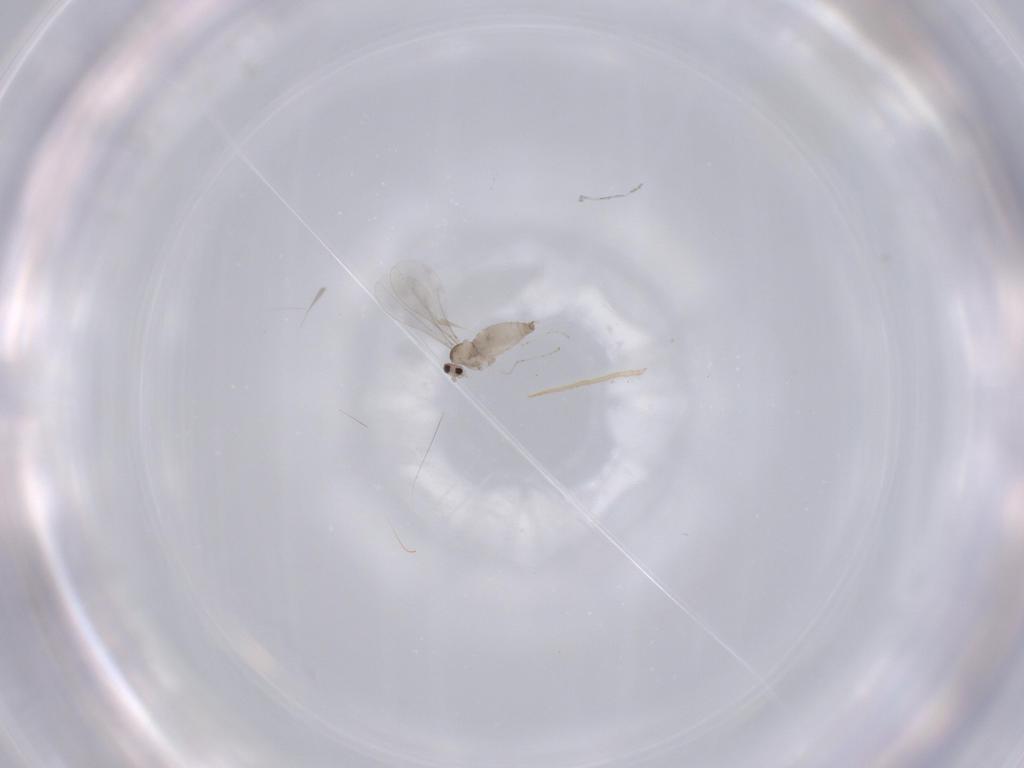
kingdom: Animalia
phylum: Arthropoda
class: Insecta
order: Diptera
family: Cecidomyiidae
